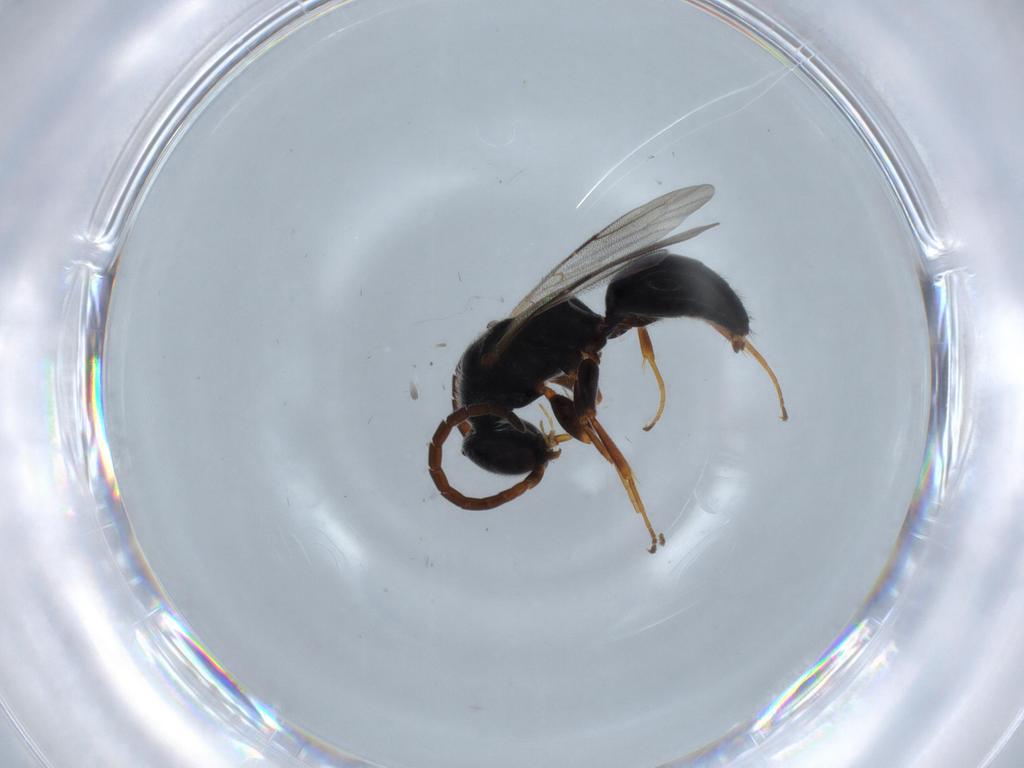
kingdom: Animalia
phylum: Arthropoda
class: Insecta
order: Hymenoptera
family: Bethylidae
